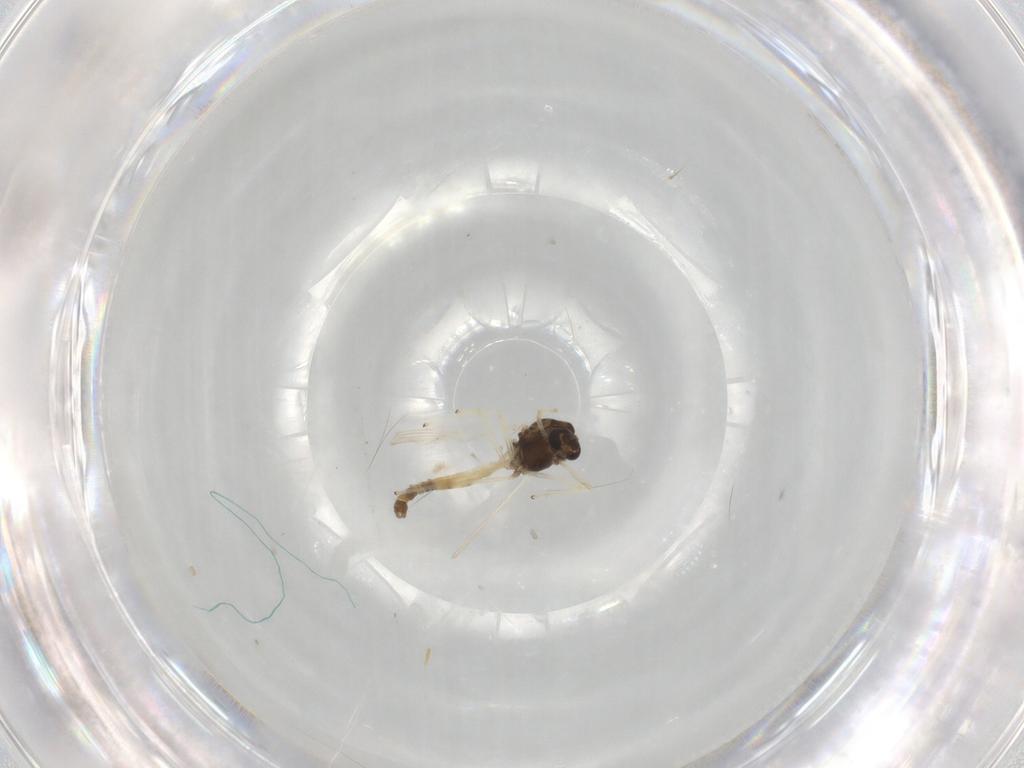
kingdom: Animalia
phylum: Arthropoda
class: Insecta
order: Diptera
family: Chironomidae
